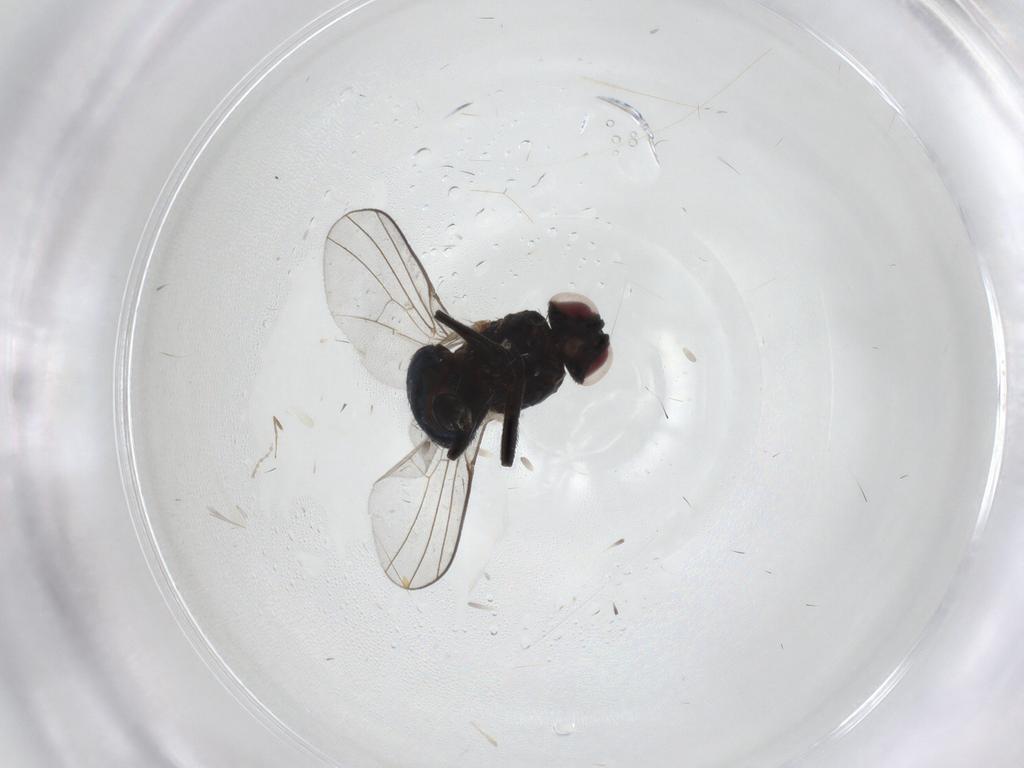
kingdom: Animalia
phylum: Arthropoda
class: Insecta
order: Diptera
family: Agromyzidae
